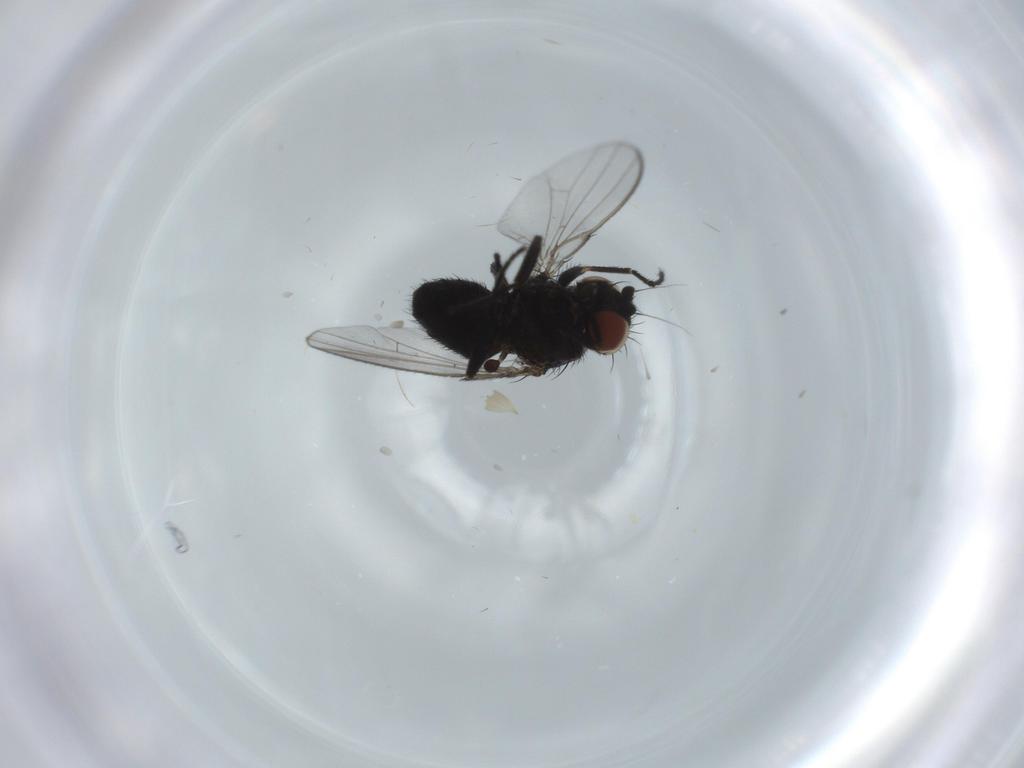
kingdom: Animalia
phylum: Arthropoda
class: Insecta
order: Diptera
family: Milichiidae
